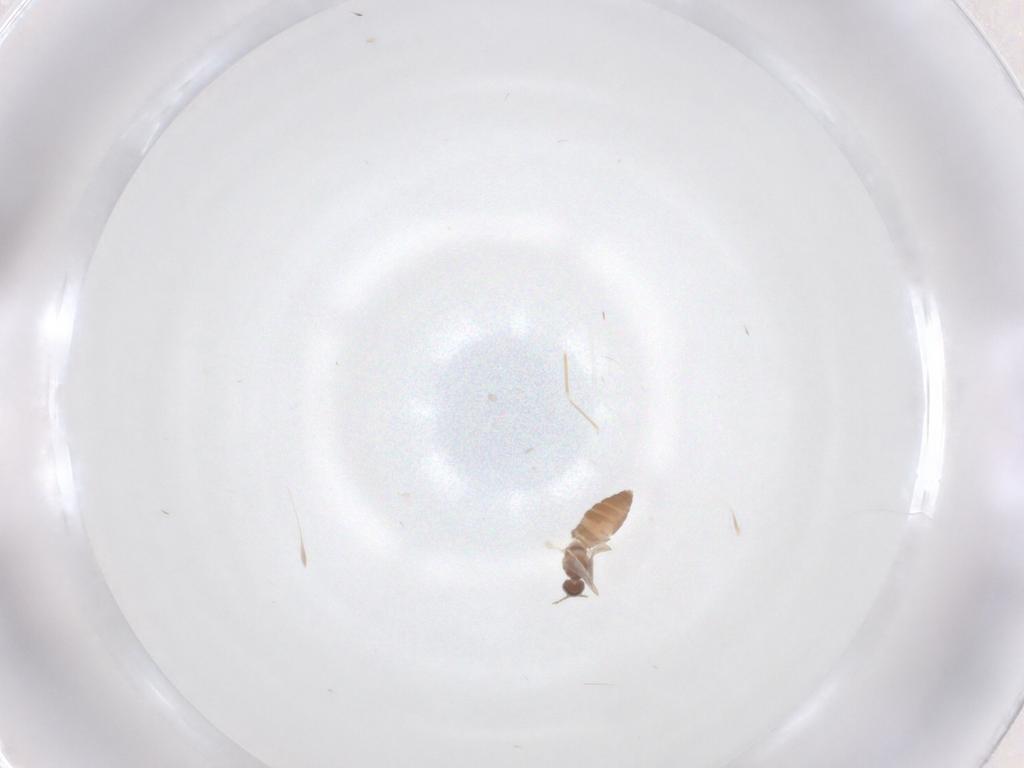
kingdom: Animalia
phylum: Arthropoda
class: Insecta
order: Diptera
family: Cecidomyiidae
